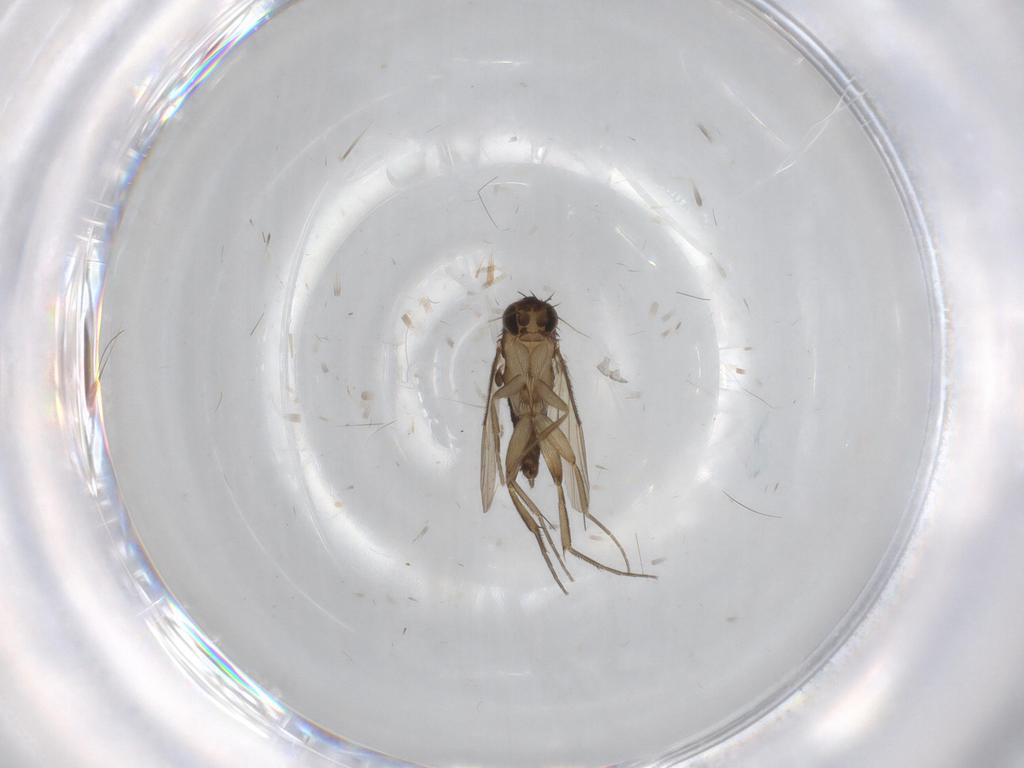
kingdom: Animalia
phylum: Arthropoda
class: Insecta
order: Diptera
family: Phoridae
